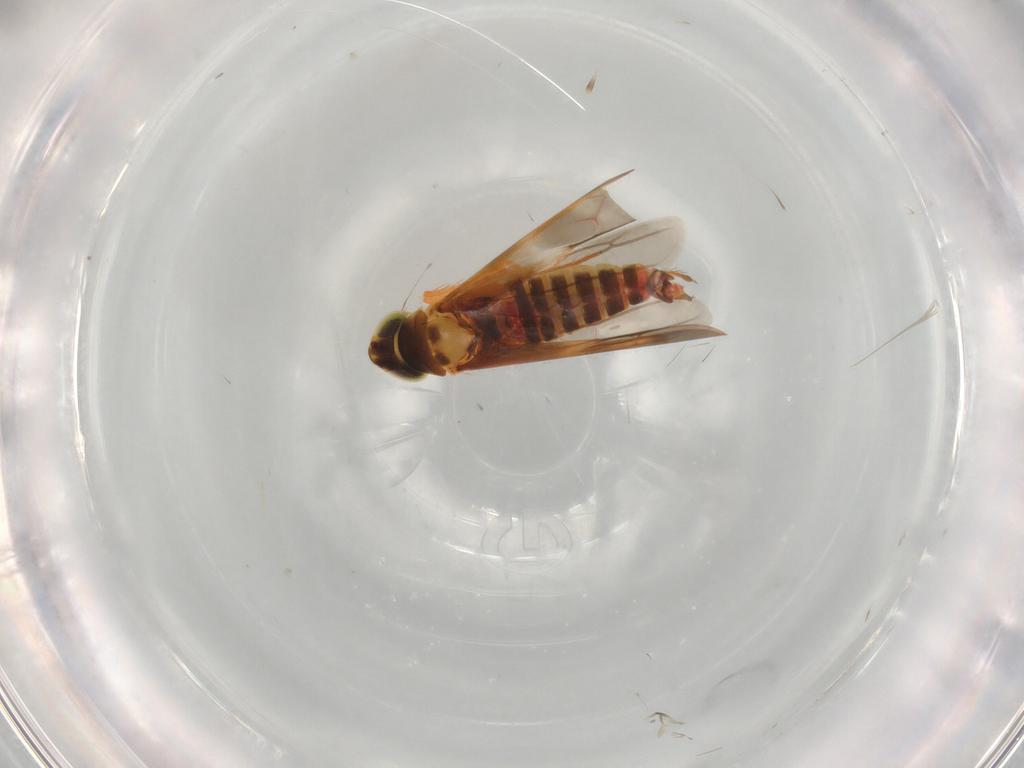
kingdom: Animalia
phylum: Arthropoda
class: Insecta
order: Hemiptera
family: Cicadellidae
